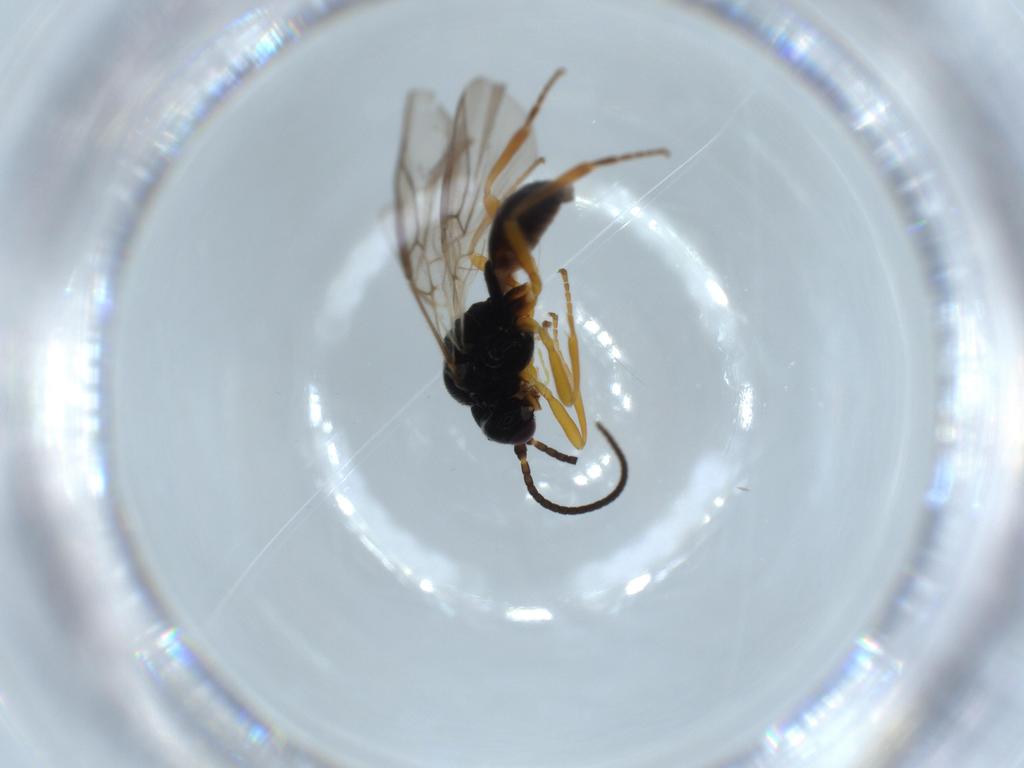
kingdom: Animalia
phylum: Arthropoda
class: Insecta
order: Hymenoptera
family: Braconidae
